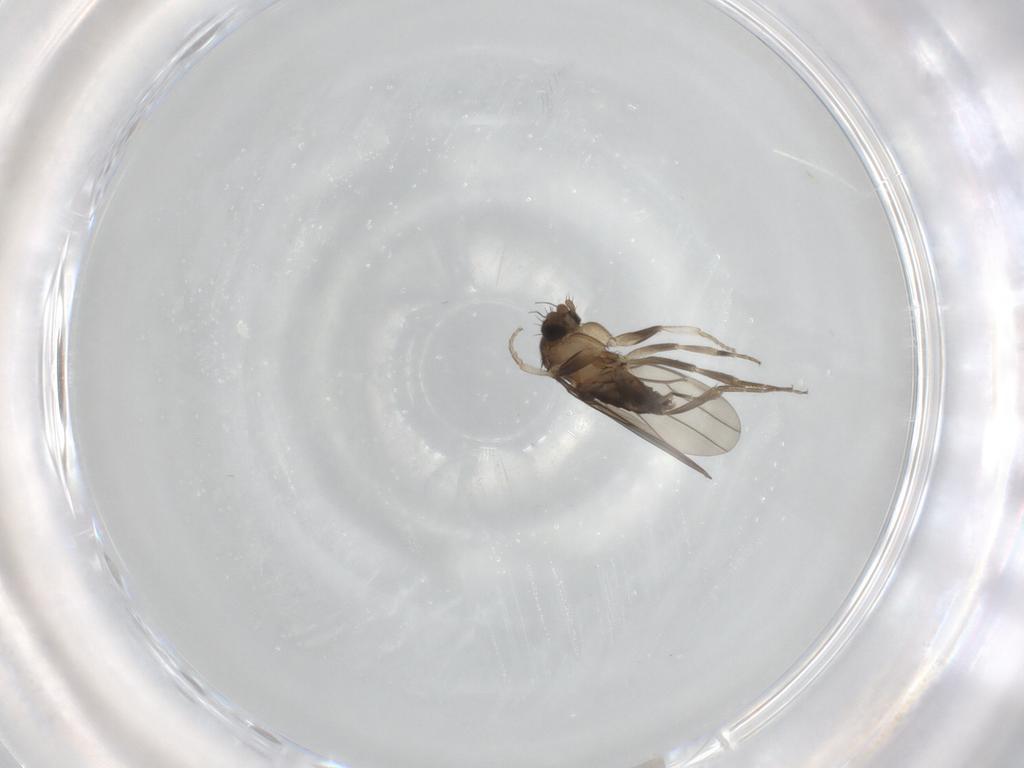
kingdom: Animalia
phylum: Arthropoda
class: Insecta
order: Diptera
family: Phoridae
